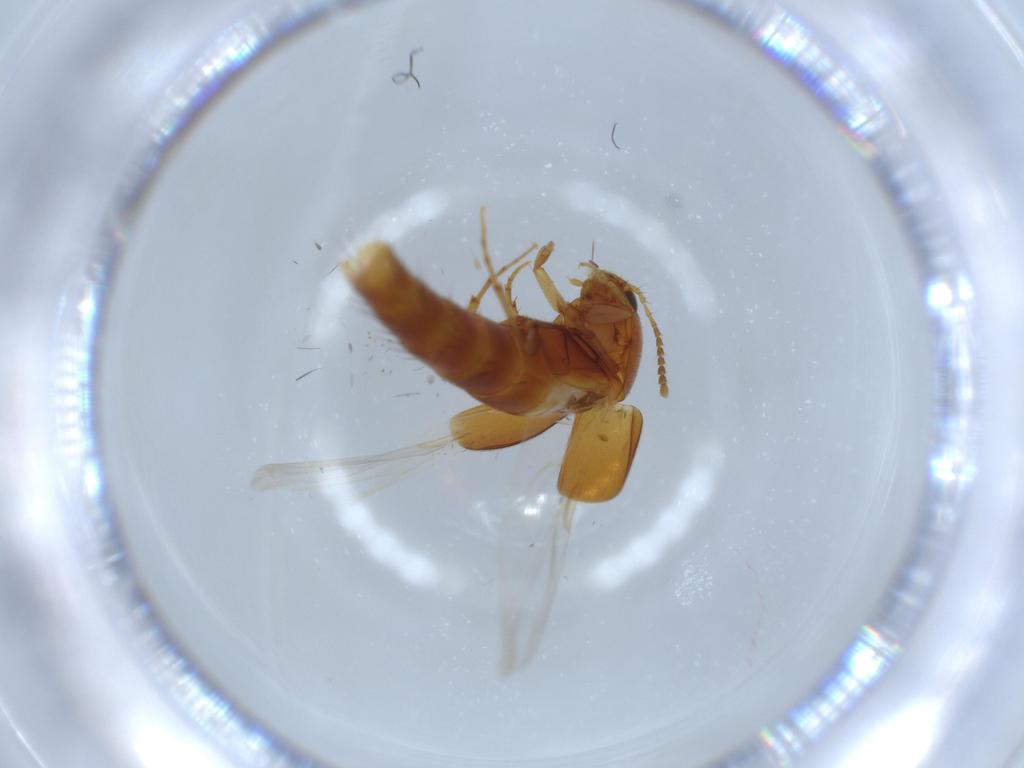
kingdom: Animalia
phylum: Arthropoda
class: Insecta
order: Coleoptera
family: Staphylinidae
